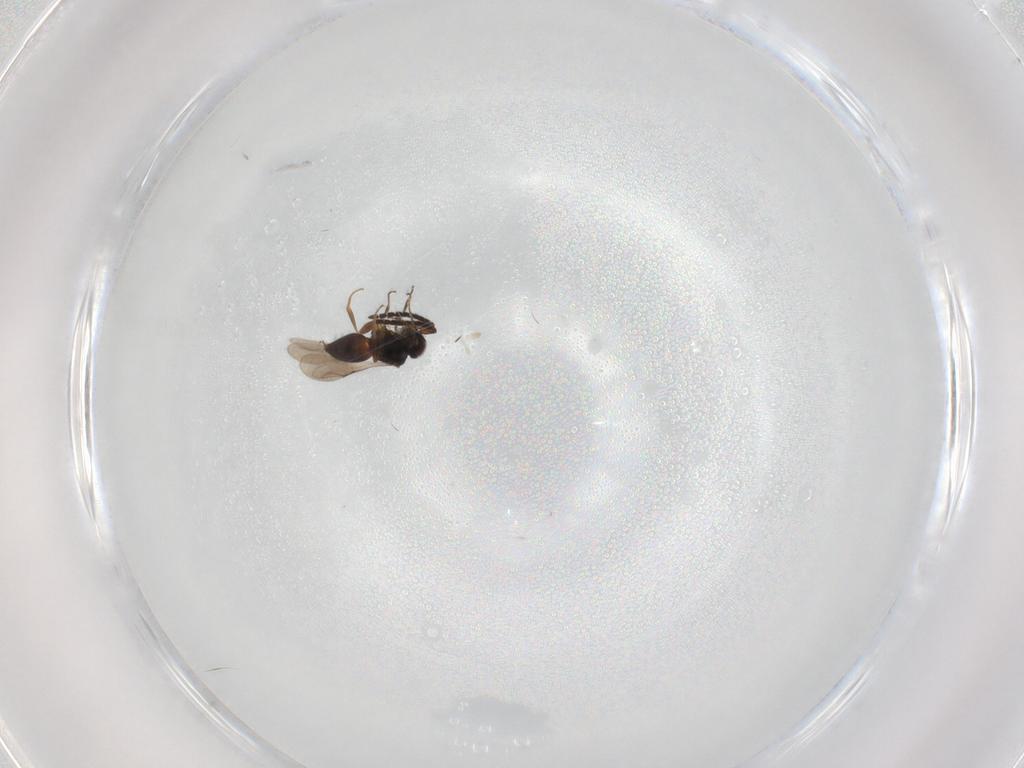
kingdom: Animalia
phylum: Arthropoda
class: Insecta
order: Hymenoptera
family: Ceraphronidae
